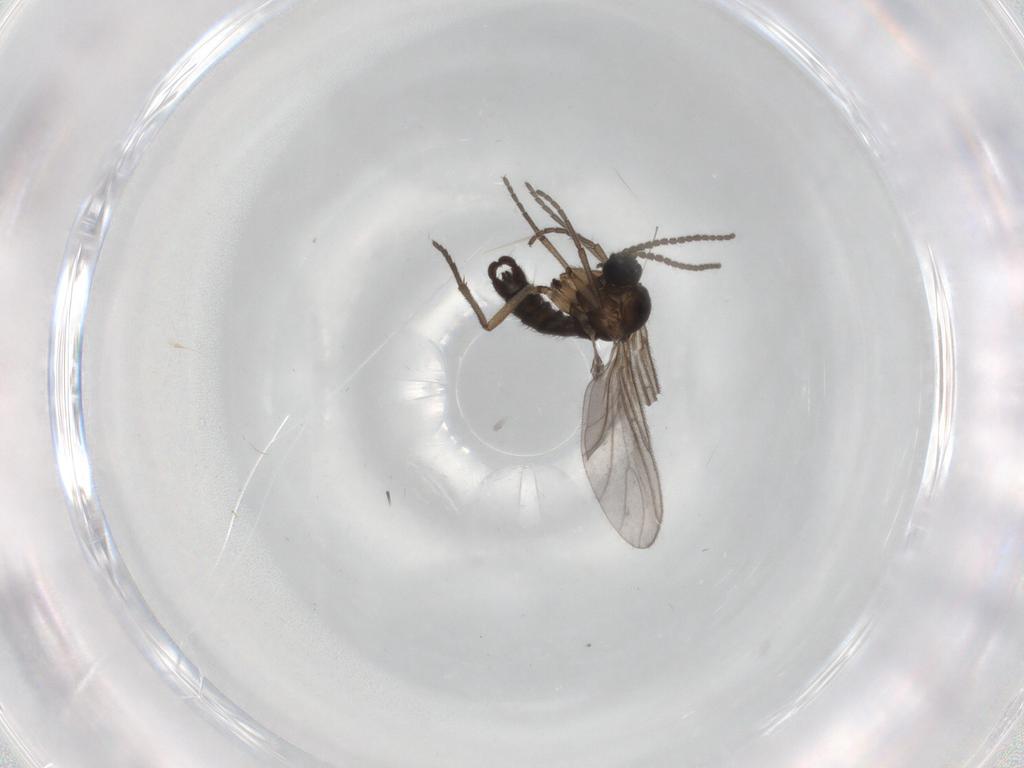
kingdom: Animalia
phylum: Arthropoda
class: Insecta
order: Diptera
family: Sciaridae
